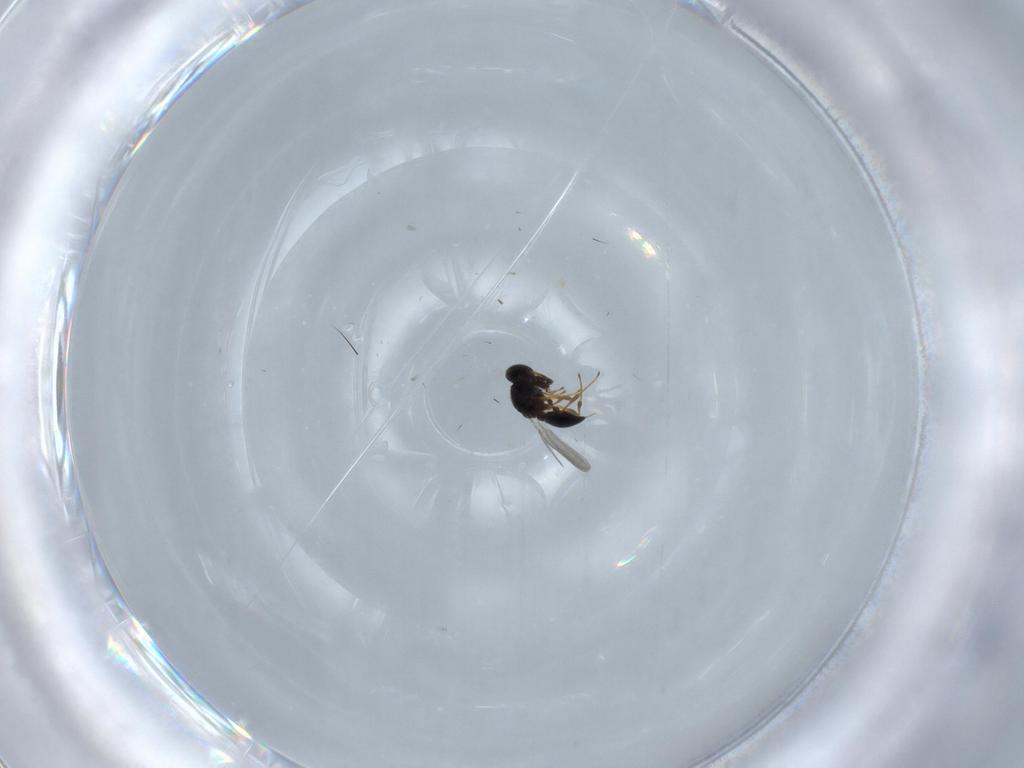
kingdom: Animalia
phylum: Arthropoda
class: Insecta
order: Hymenoptera
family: Platygastridae
